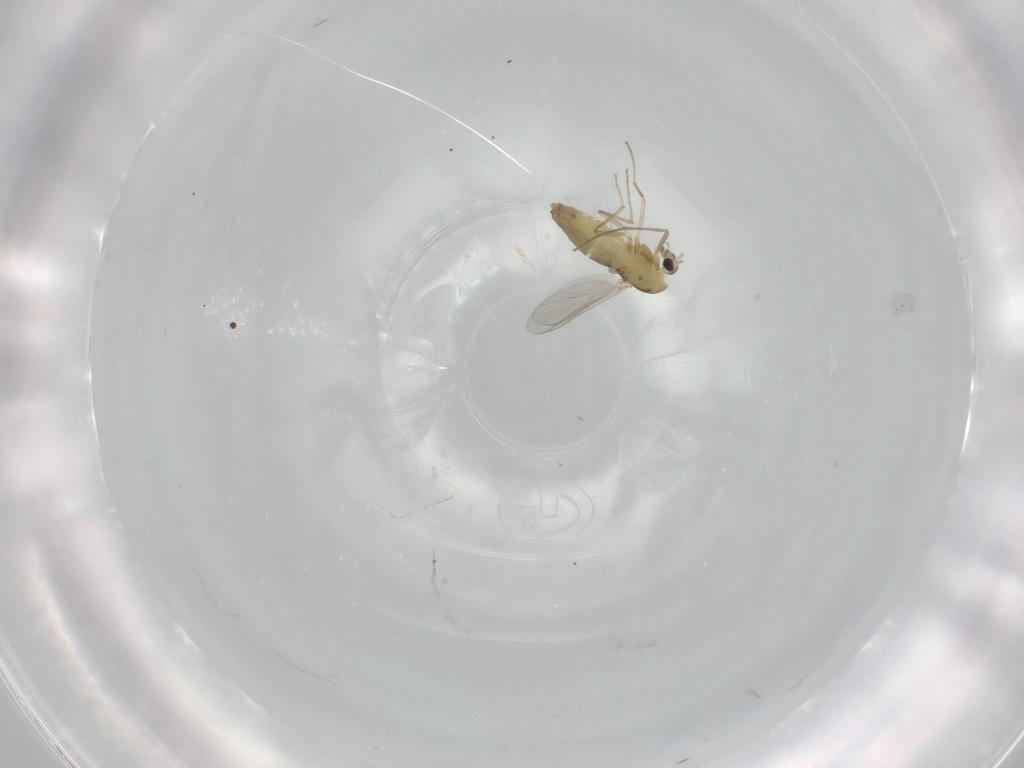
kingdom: Animalia
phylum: Arthropoda
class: Insecta
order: Diptera
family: Chironomidae
